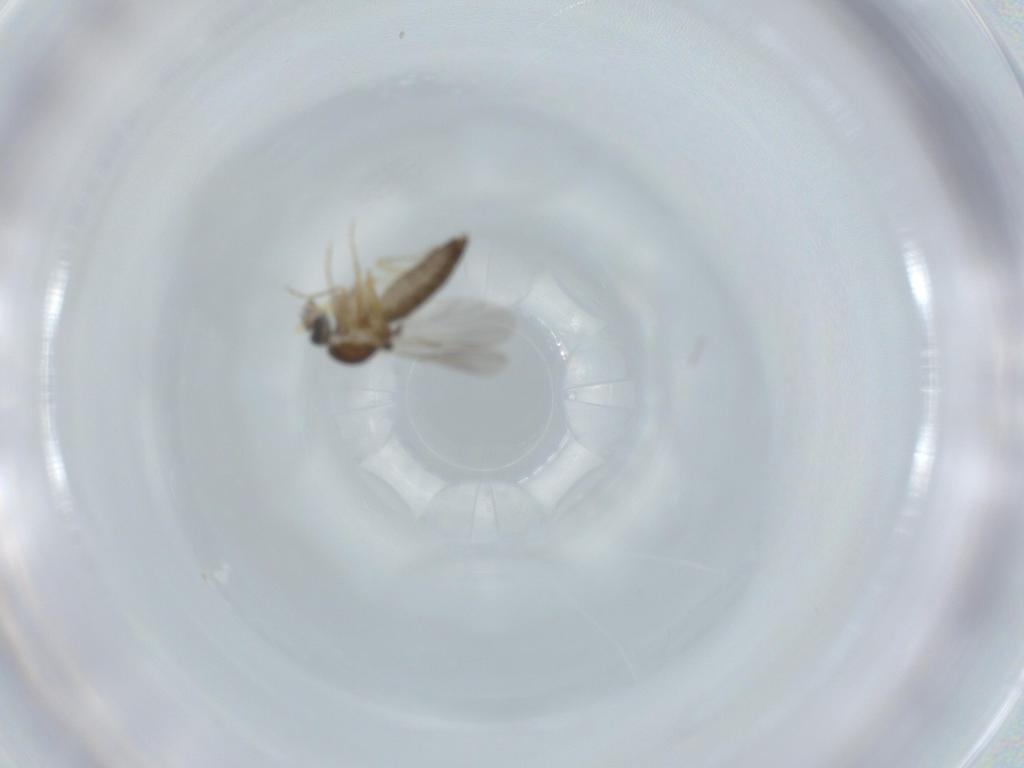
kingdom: Animalia
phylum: Arthropoda
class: Insecta
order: Diptera
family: Ceratopogonidae
